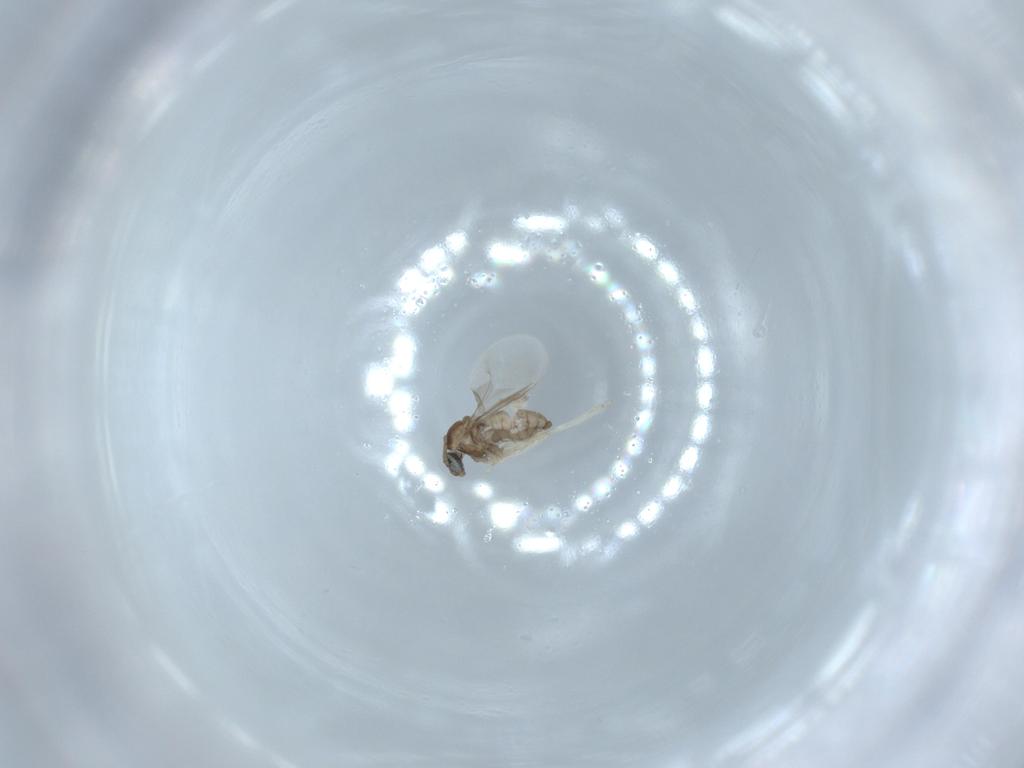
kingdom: Animalia
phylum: Arthropoda
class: Insecta
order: Diptera
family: Cecidomyiidae
